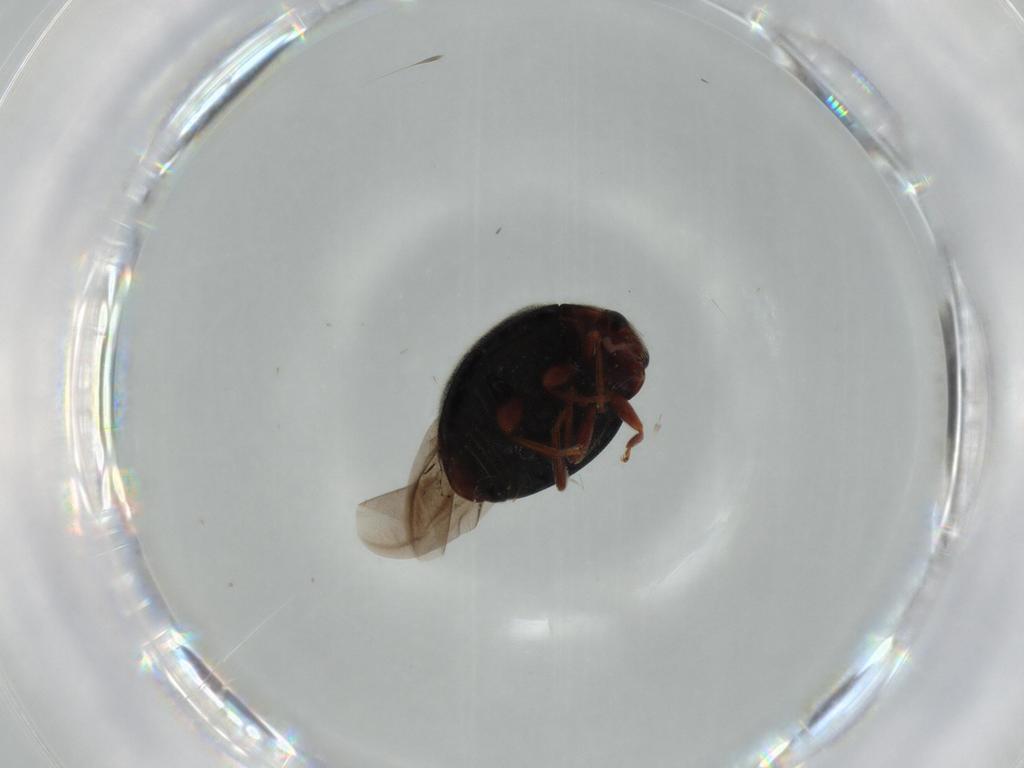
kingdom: Animalia
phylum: Arthropoda
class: Insecta
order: Coleoptera
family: Coccinellidae
